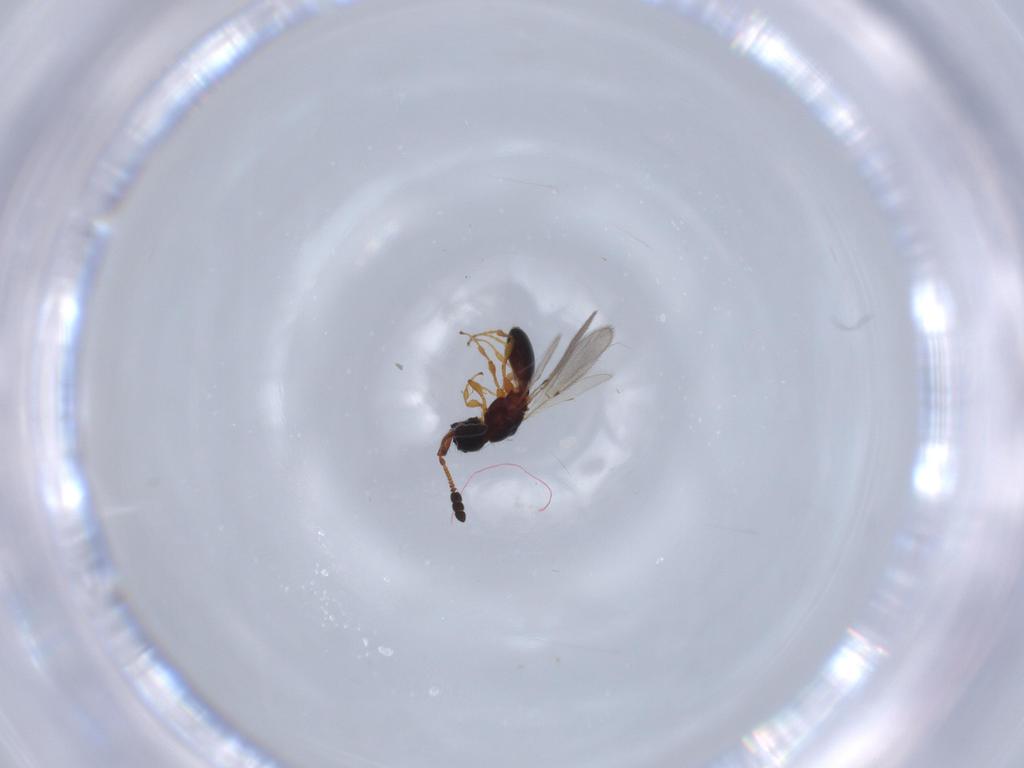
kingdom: Animalia
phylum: Arthropoda
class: Insecta
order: Hymenoptera
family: Diapriidae
